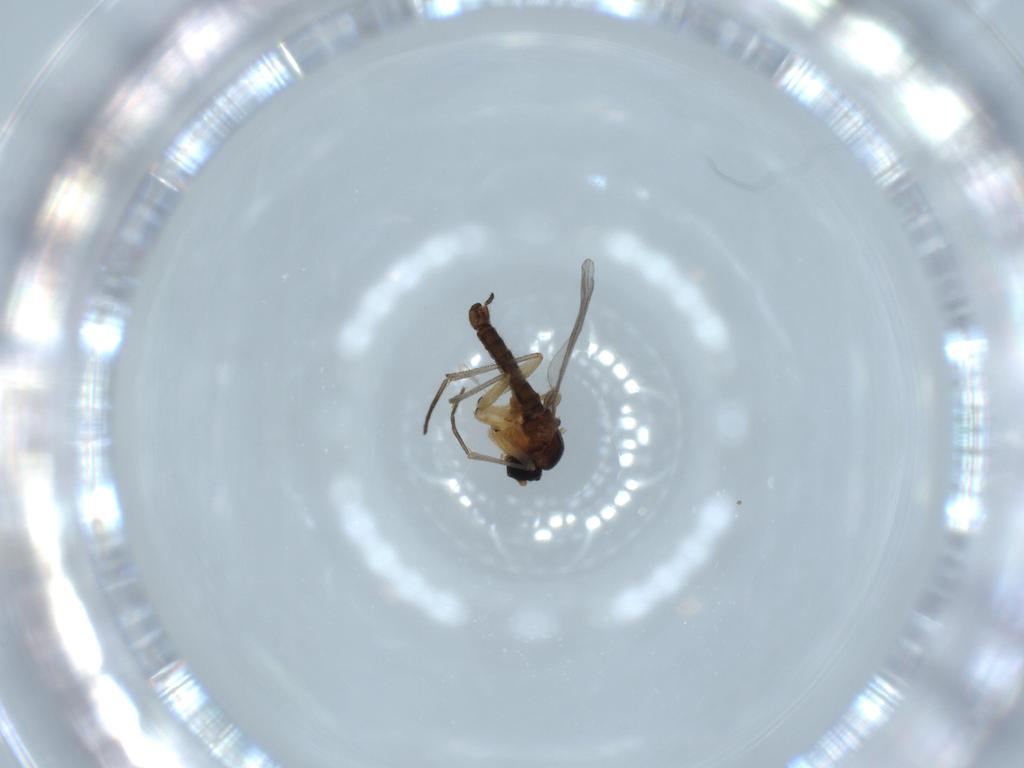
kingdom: Animalia
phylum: Arthropoda
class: Insecta
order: Diptera
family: Sciaridae
